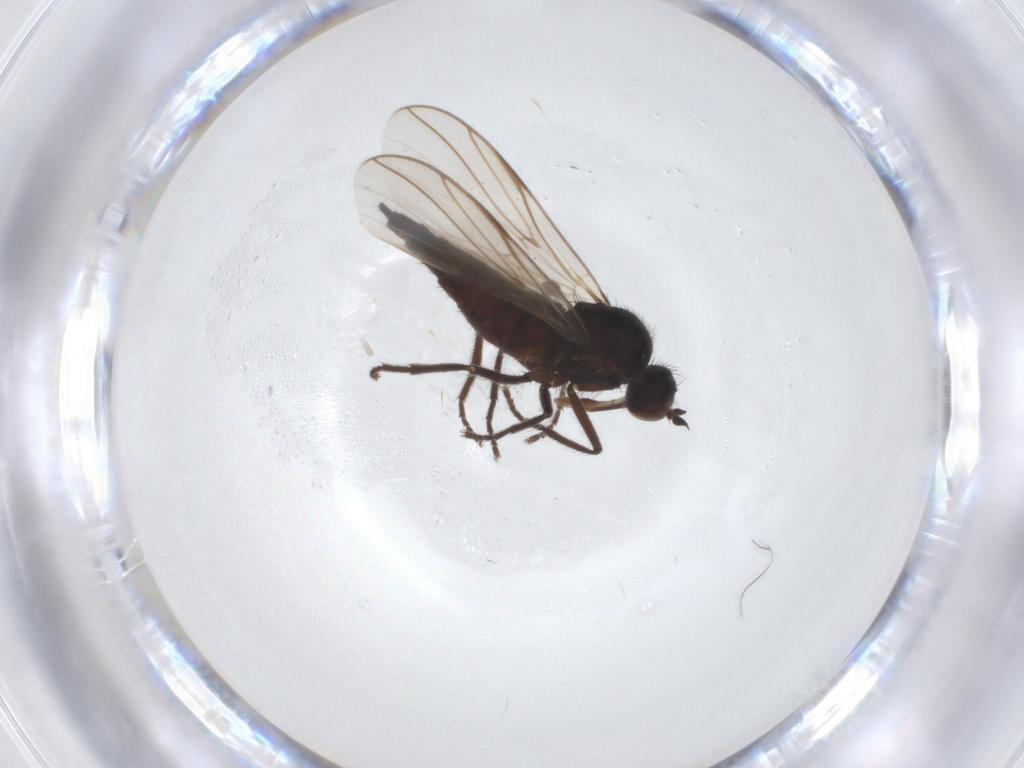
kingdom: Animalia
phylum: Arthropoda
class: Insecta
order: Diptera
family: Empididae
